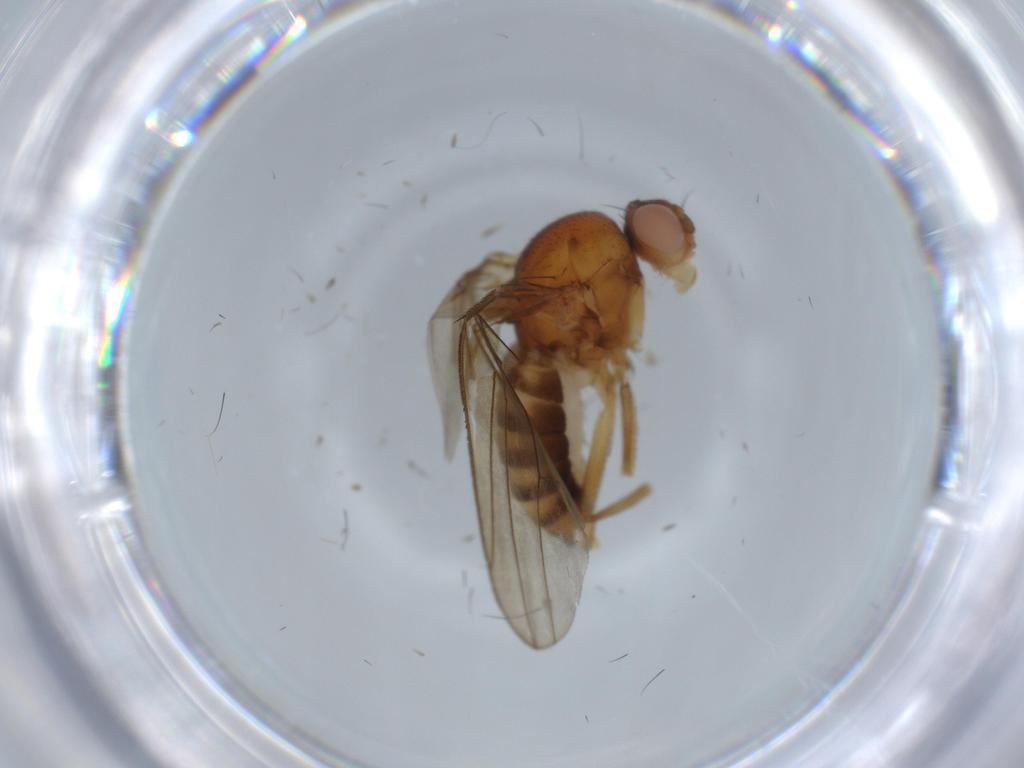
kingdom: Animalia
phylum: Arthropoda
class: Insecta
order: Diptera
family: Drosophilidae
